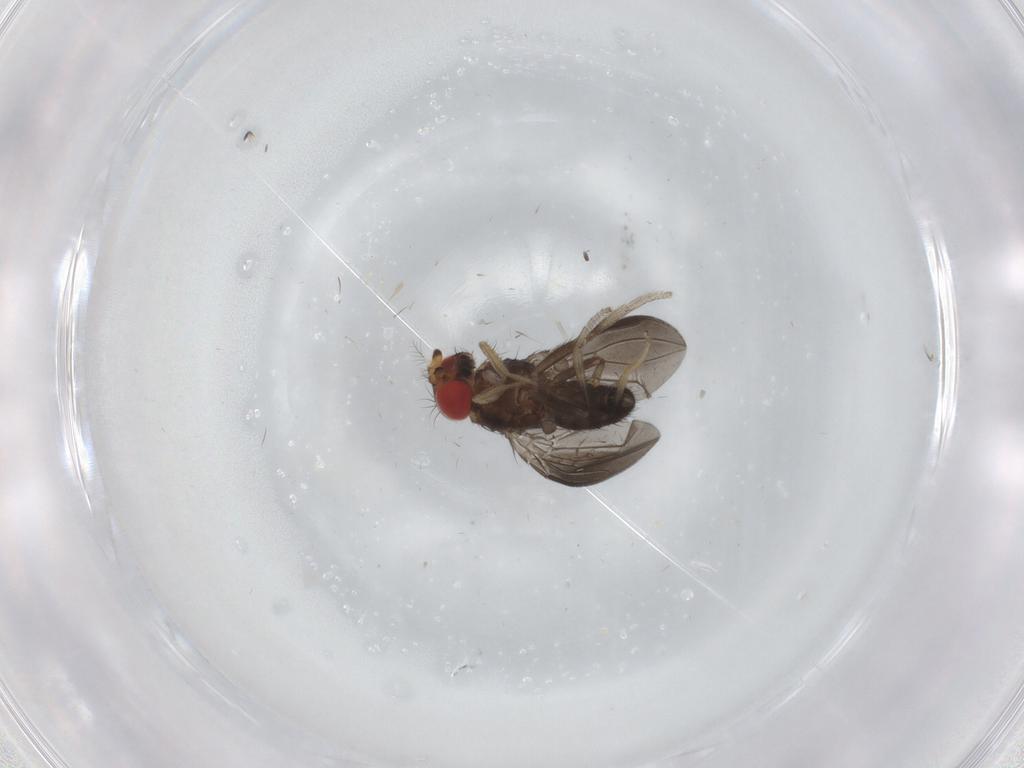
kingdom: Animalia
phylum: Arthropoda
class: Insecta
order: Diptera
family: Drosophilidae
